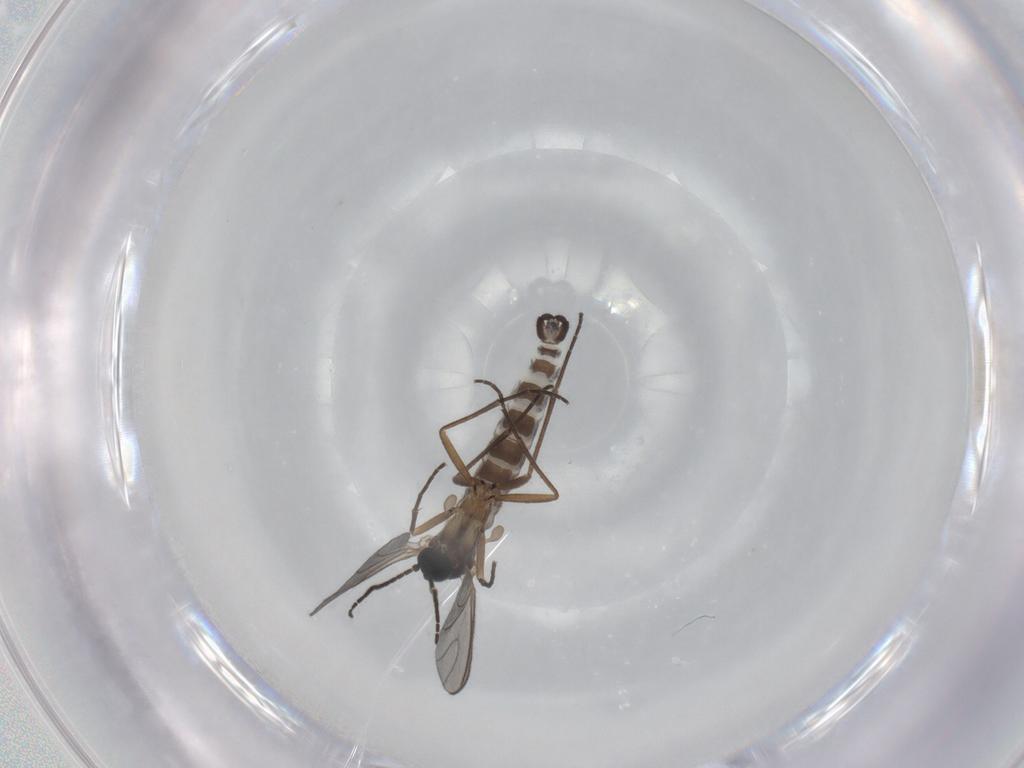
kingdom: Animalia
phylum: Arthropoda
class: Insecta
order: Diptera
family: Sciaridae
